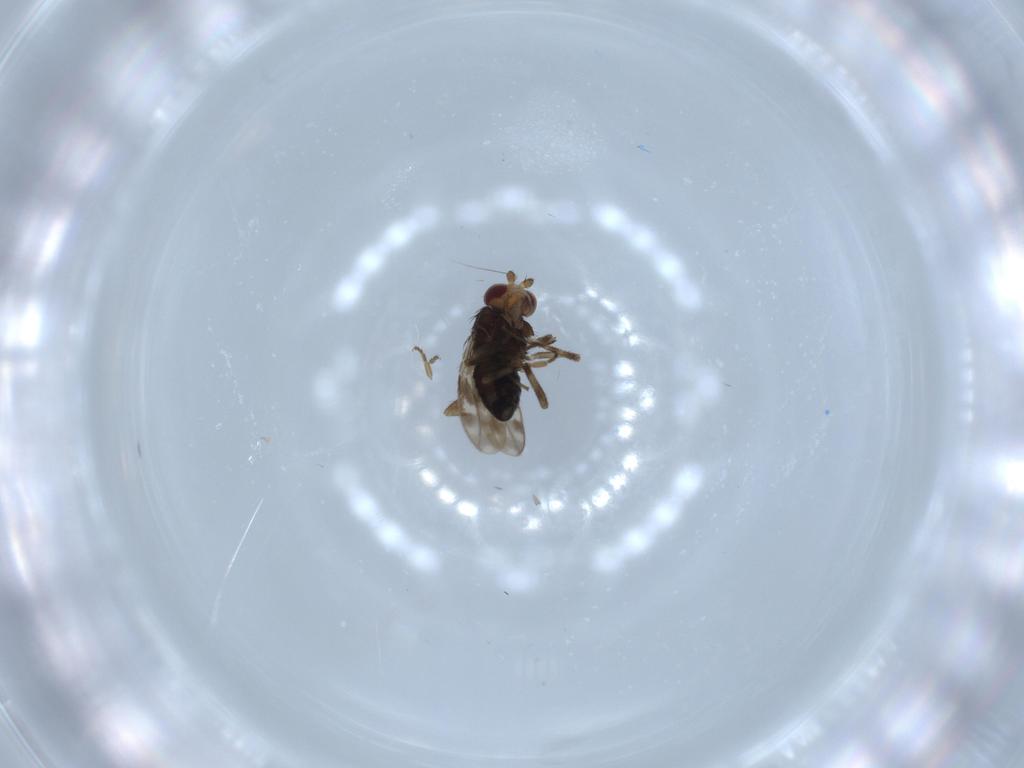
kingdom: Animalia
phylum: Arthropoda
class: Insecta
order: Diptera
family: Sphaeroceridae
